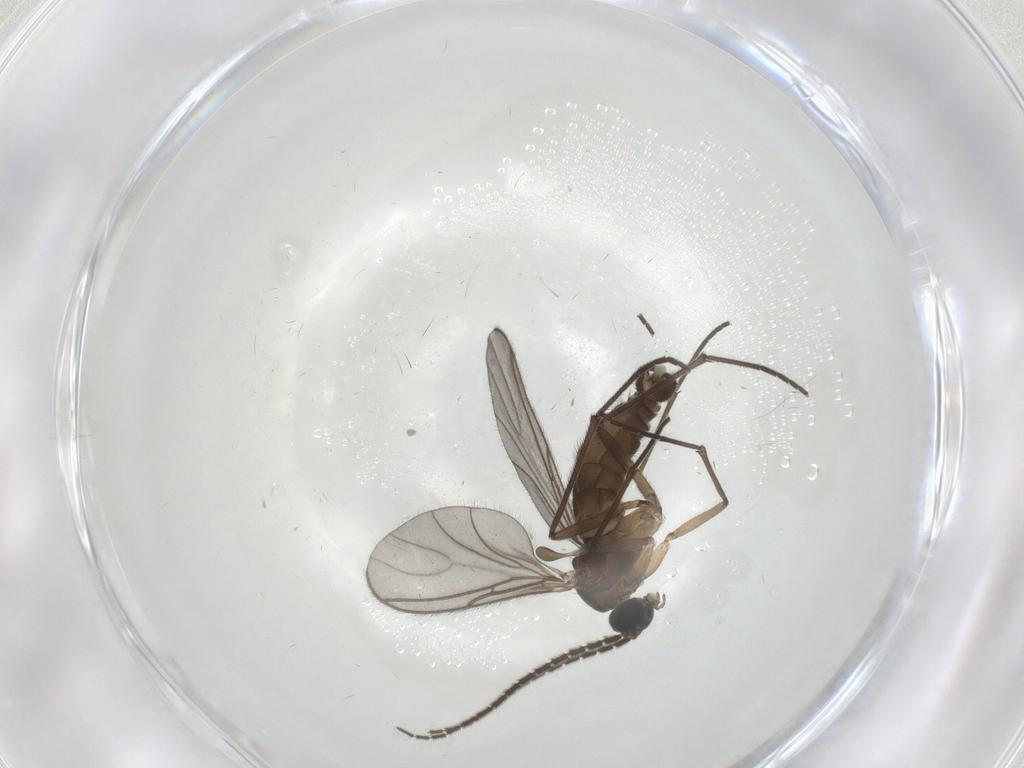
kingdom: Animalia
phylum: Arthropoda
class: Insecta
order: Diptera
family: Sciaridae
